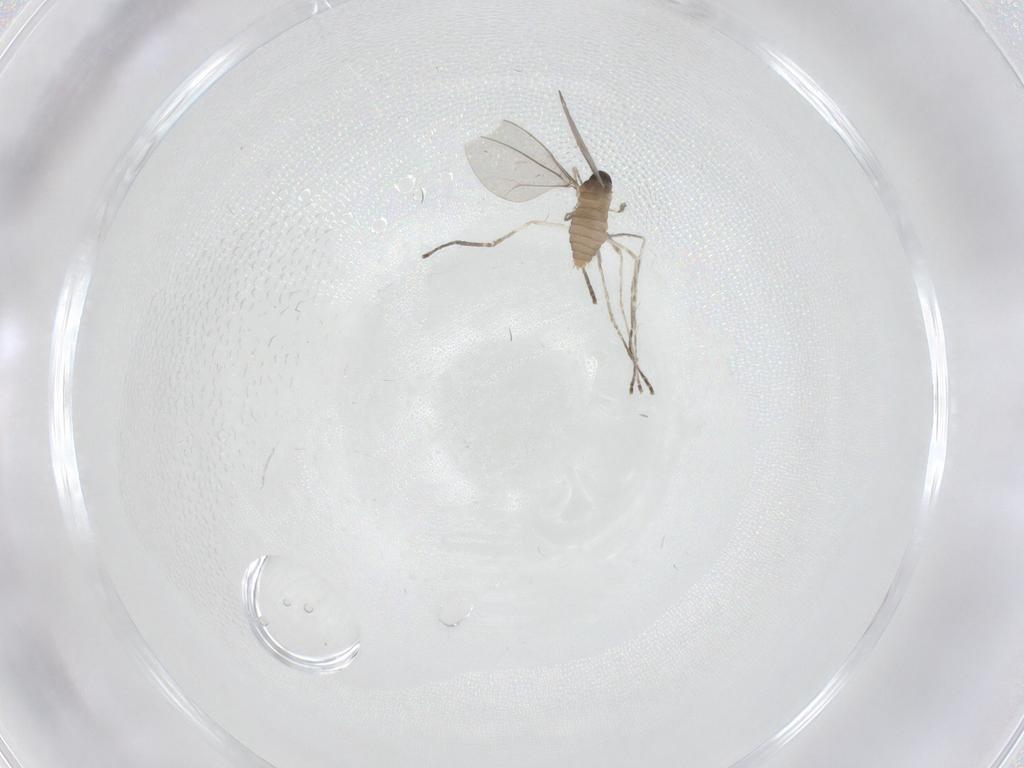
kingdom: Animalia
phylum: Arthropoda
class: Insecta
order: Diptera
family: Cecidomyiidae
